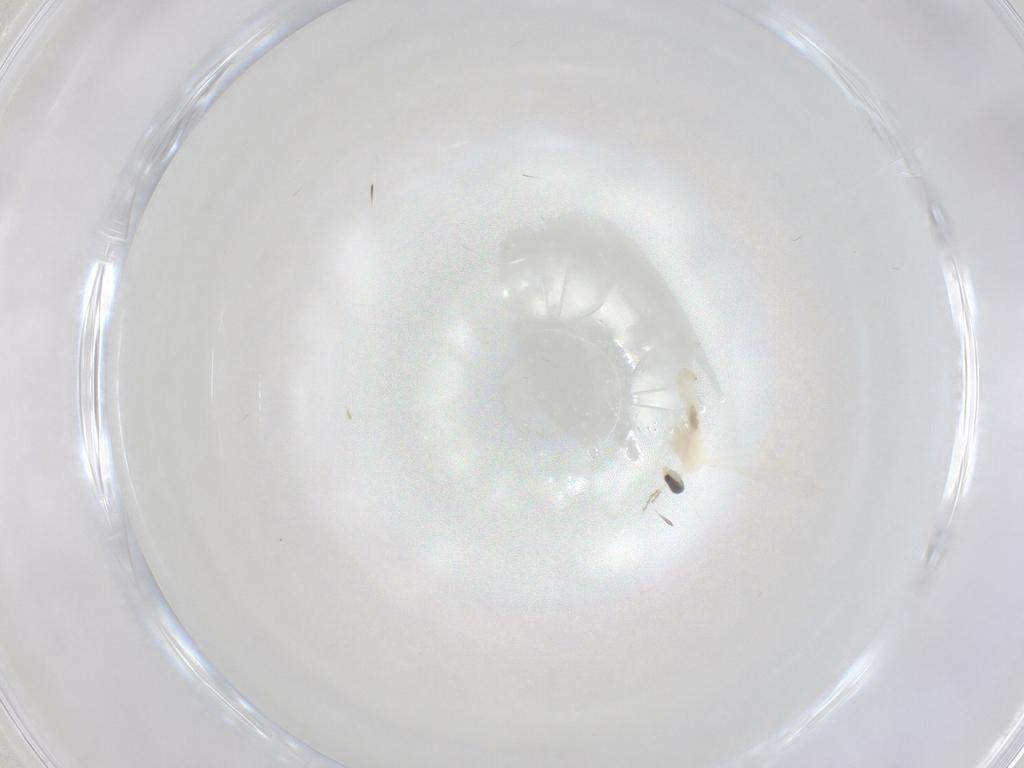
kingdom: Animalia
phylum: Arthropoda
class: Insecta
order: Diptera
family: Cecidomyiidae
